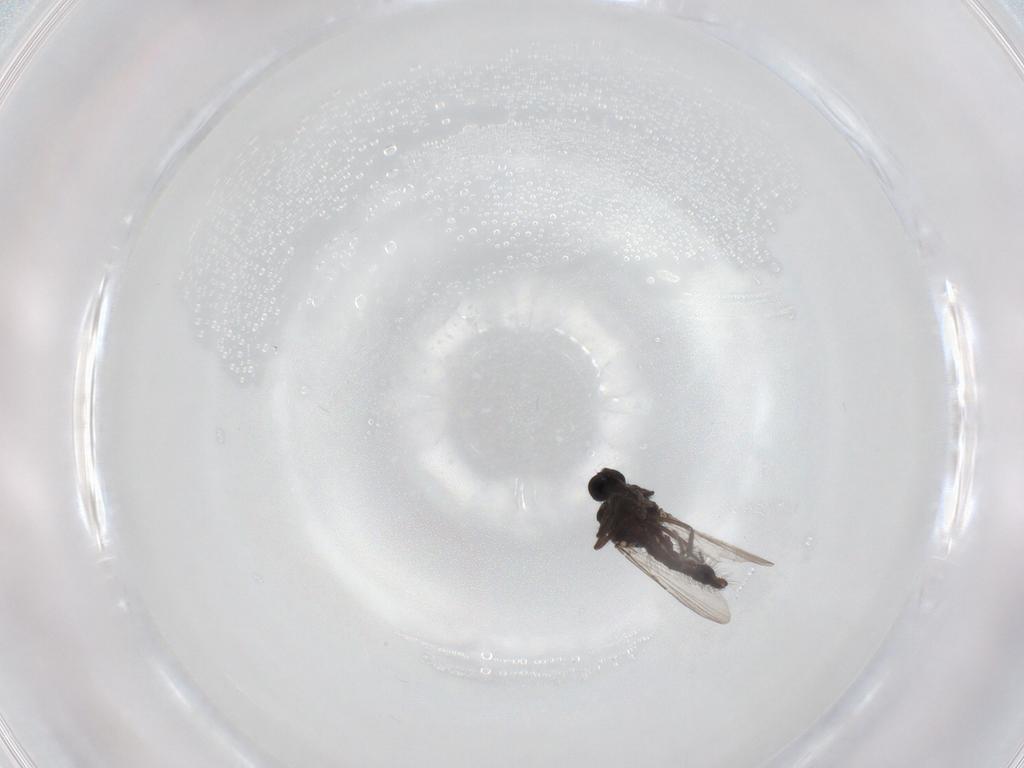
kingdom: Animalia
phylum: Arthropoda
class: Insecta
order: Diptera
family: Ceratopogonidae
